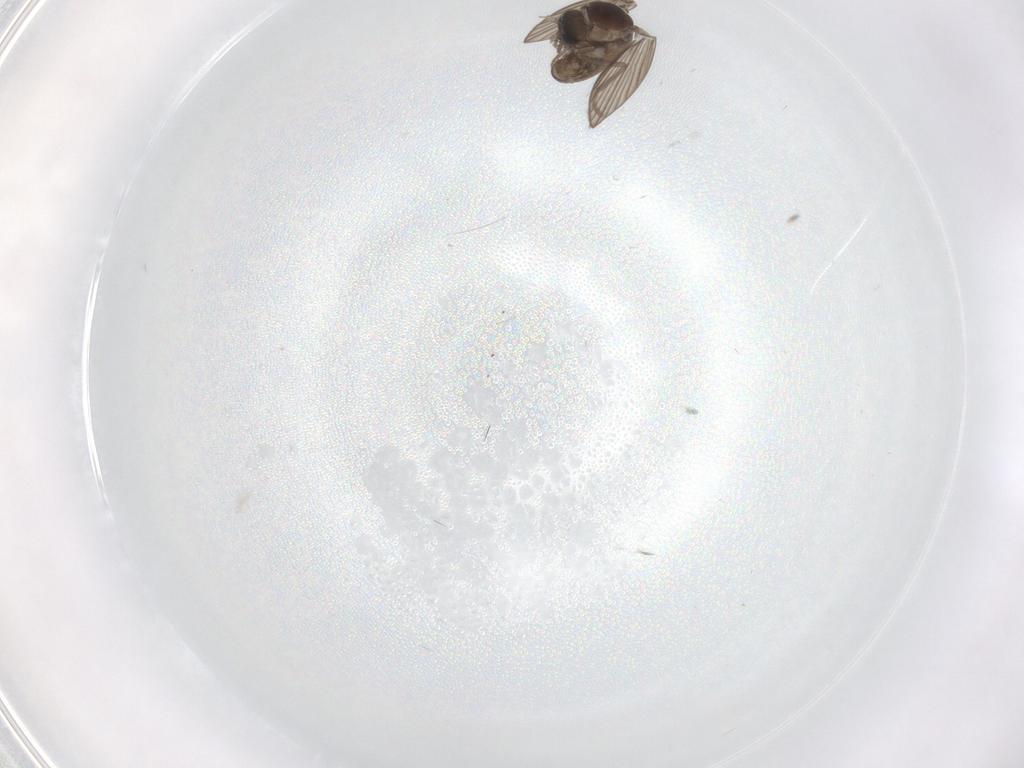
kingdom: Animalia
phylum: Arthropoda
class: Insecta
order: Diptera
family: Psychodidae
